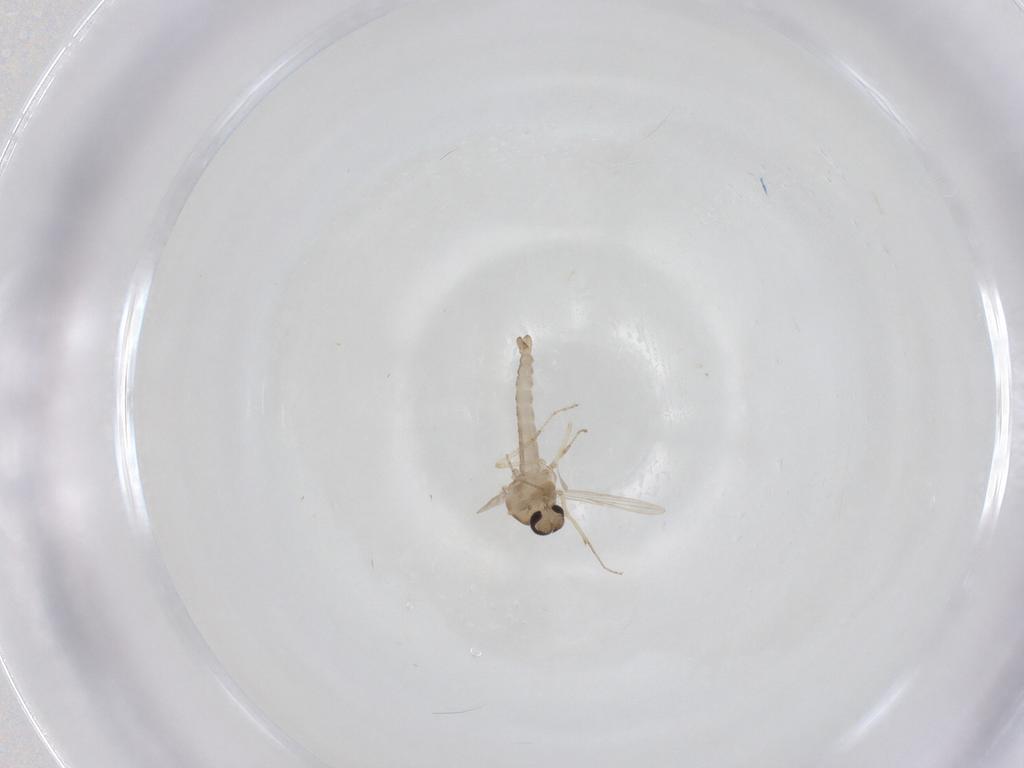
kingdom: Animalia
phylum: Arthropoda
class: Insecta
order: Diptera
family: Ceratopogonidae
